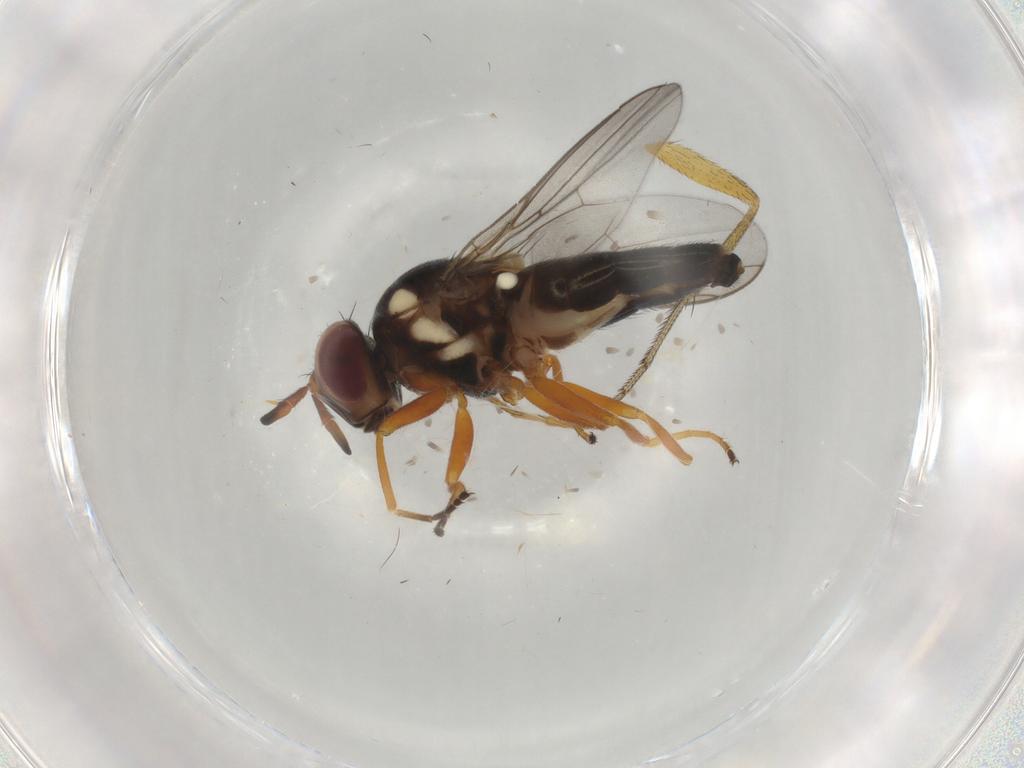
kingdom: Animalia
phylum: Arthropoda
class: Insecta
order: Diptera
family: Chloropidae
